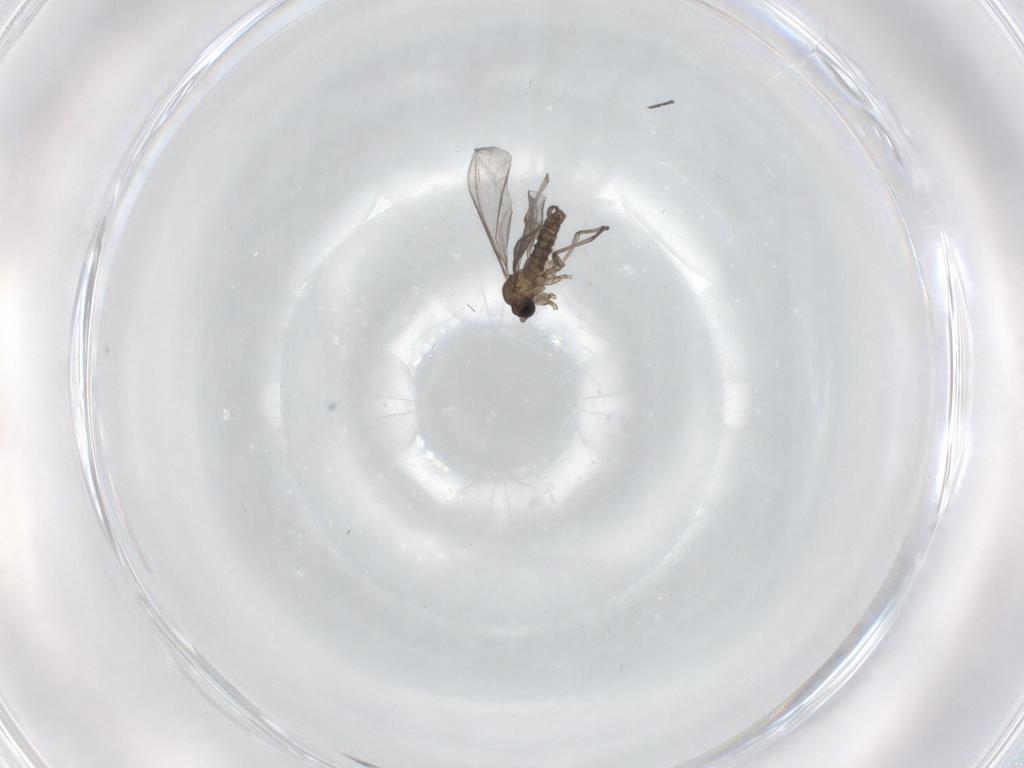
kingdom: Animalia
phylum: Arthropoda
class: Insecta
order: Diptera
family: Sciaridae
